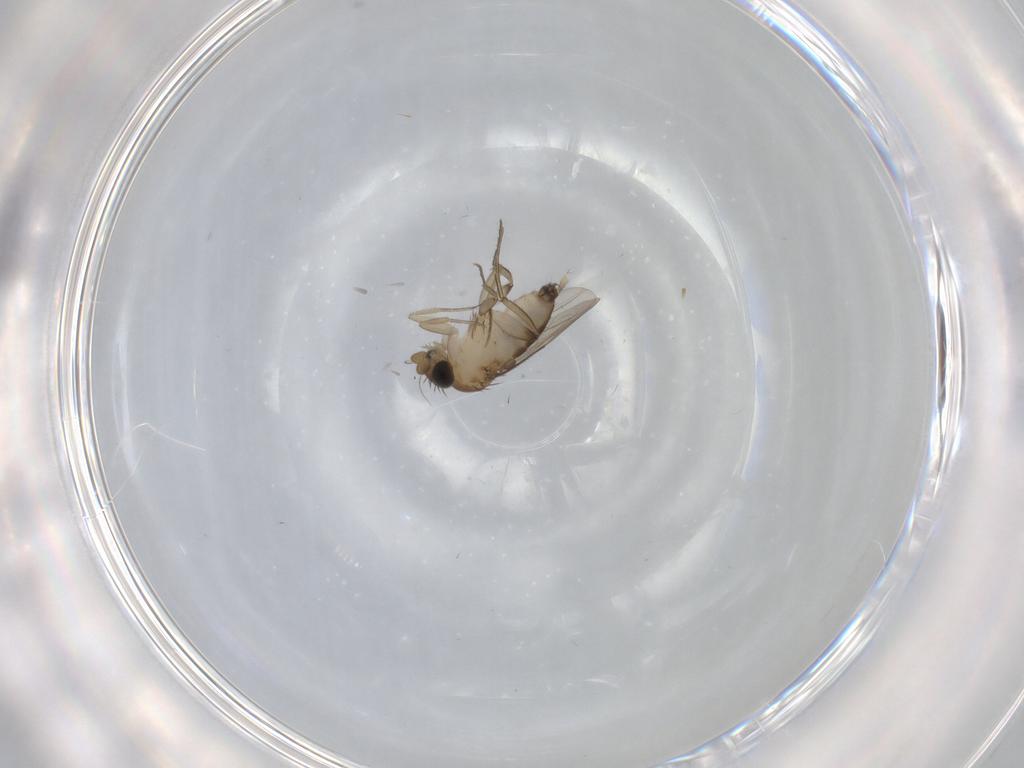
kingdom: Animalia
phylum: Arthropoda
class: Insecta
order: Diptera
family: Phoridae
